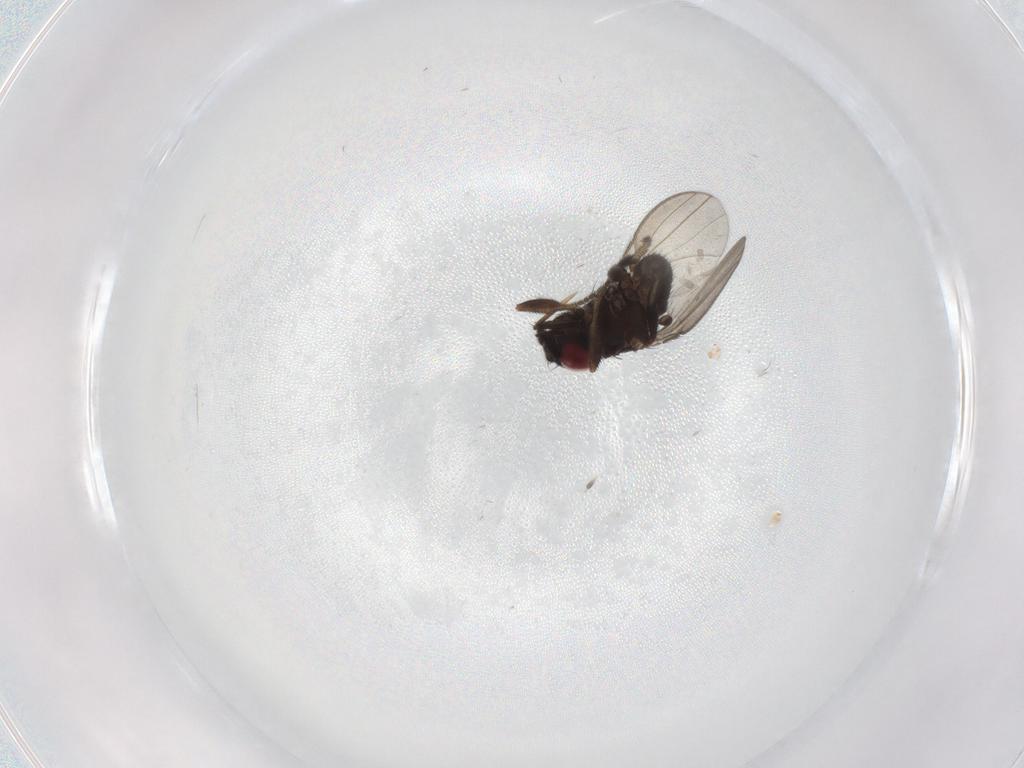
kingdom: Animalia
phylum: Arthropoda
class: Insecta
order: Diptera
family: Milichiidae
